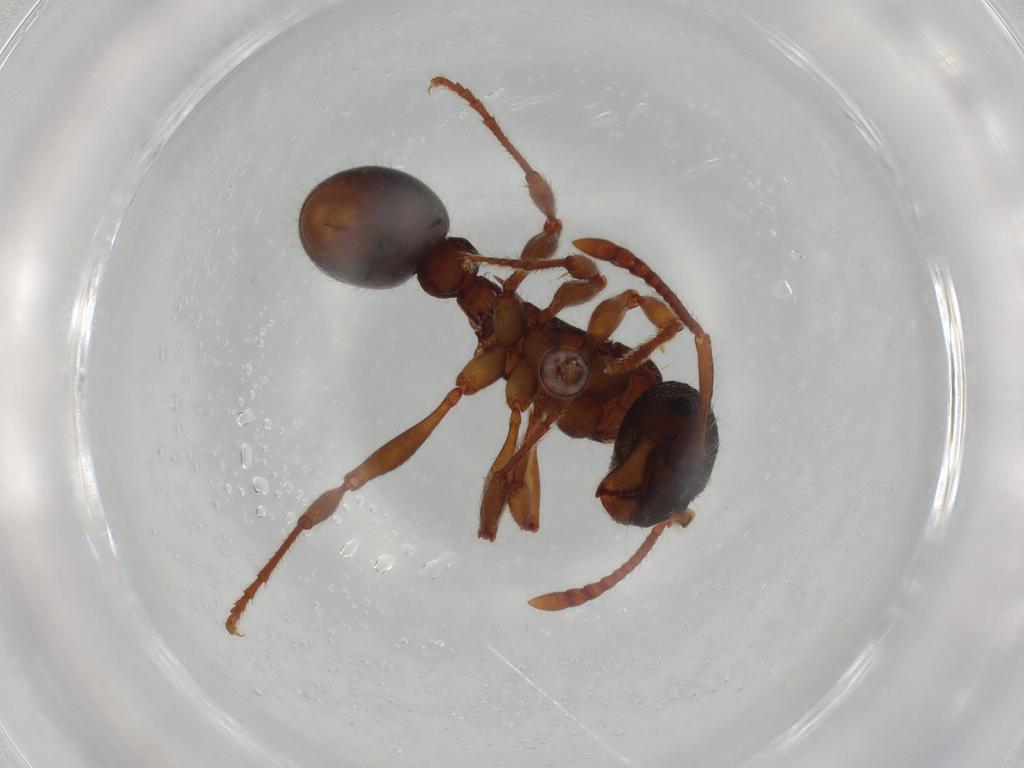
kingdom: Animalia
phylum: Arthropoda
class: Insecta
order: Hymenoptera
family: Formicidae
